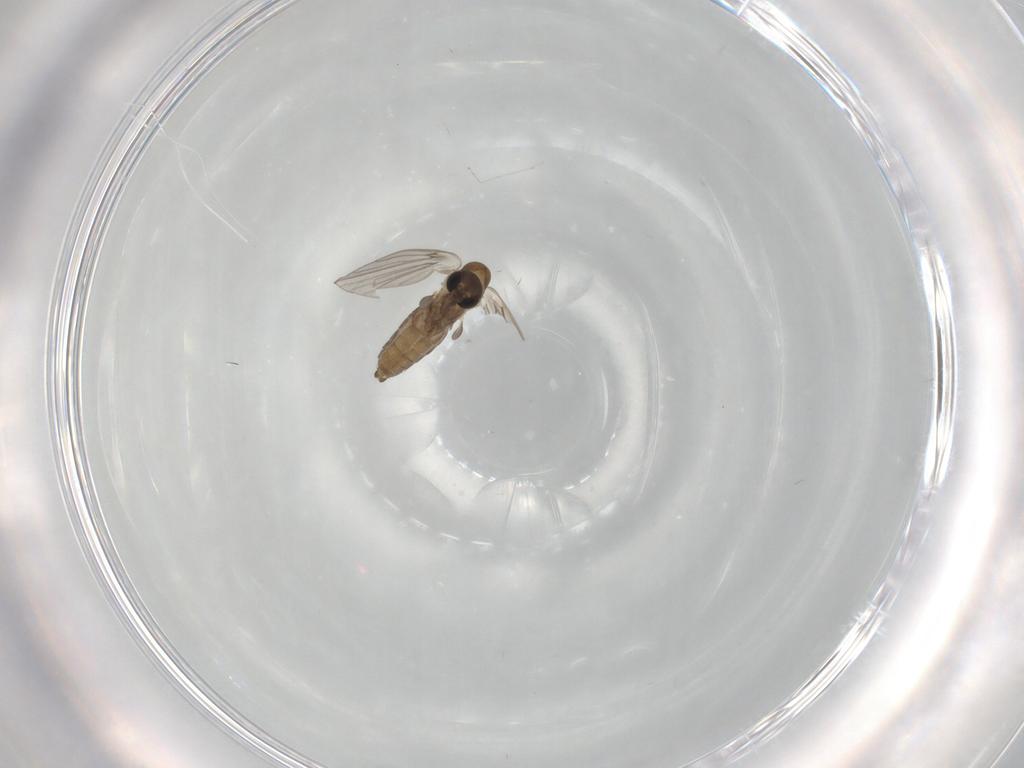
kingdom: Animalia
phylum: Arthropoda
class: Insecta
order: Diptera
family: Cecidomyiidae
